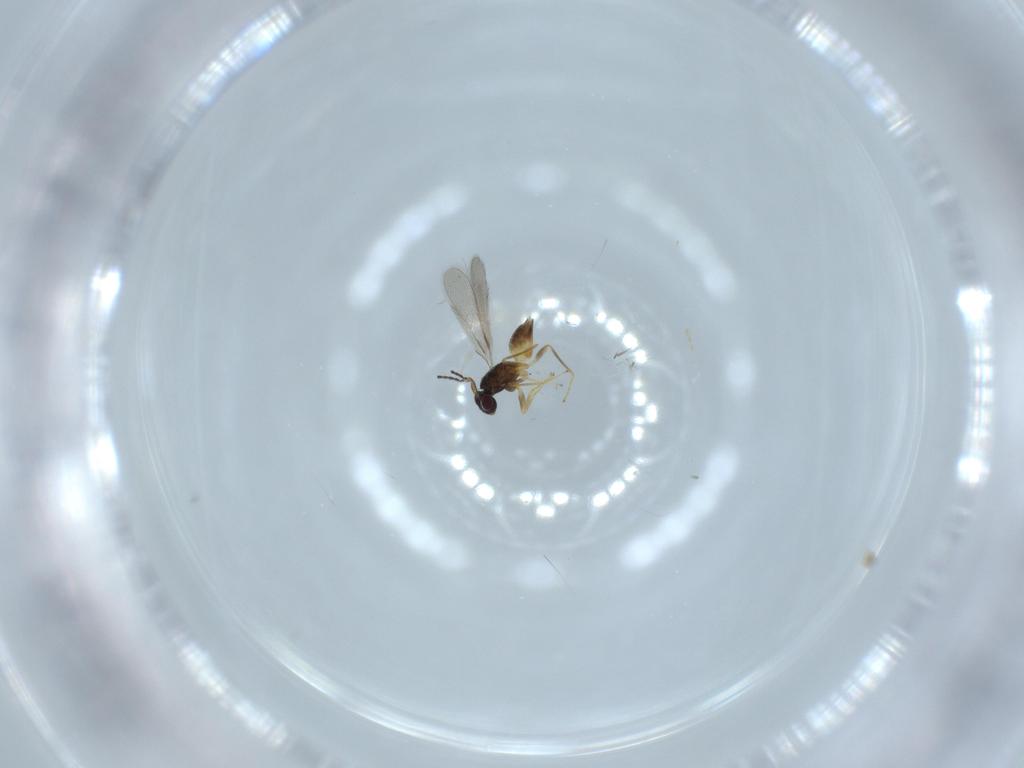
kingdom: Animalia
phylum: Arthropoda
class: Insecta
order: Hymenoptera
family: Mymaridae
